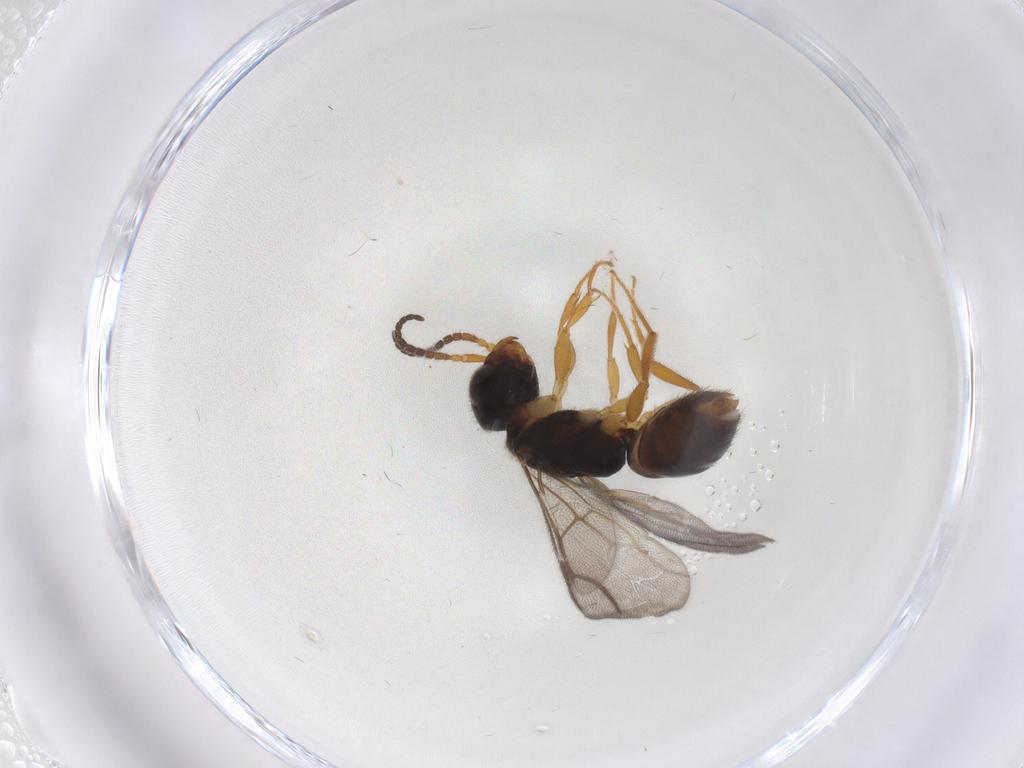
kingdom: Animalia
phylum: Arthropoda
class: Insecta
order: Hymenoptera
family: Bethylidae
